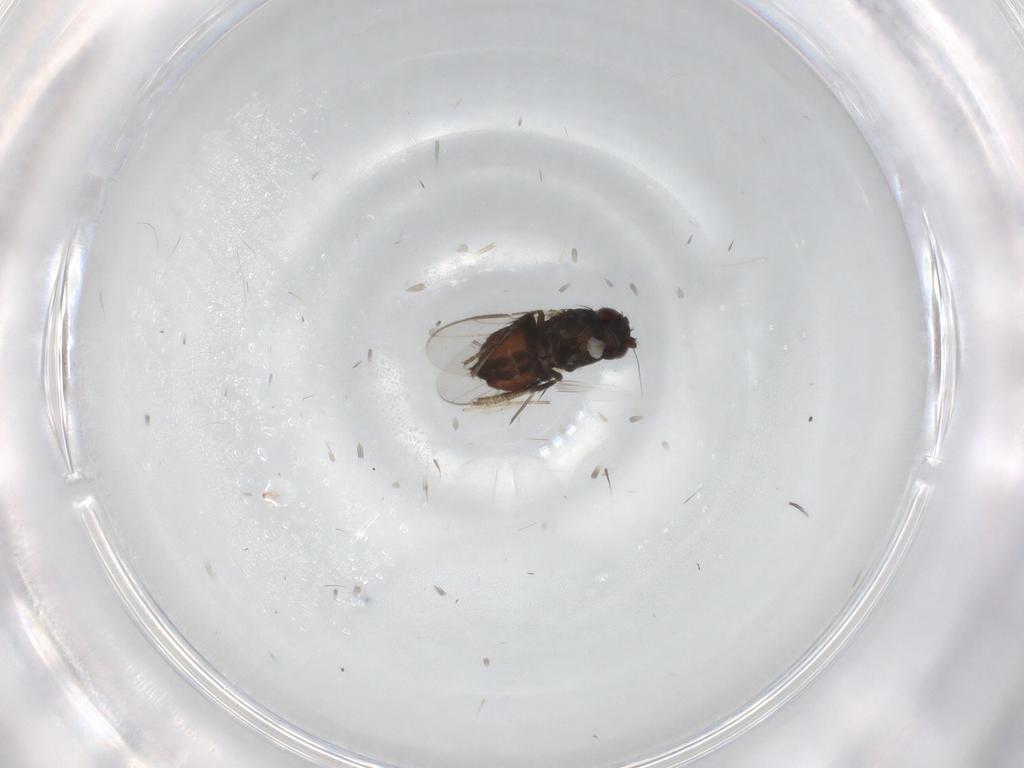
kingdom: Animalia
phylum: Arthropoda
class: Insecta
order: Diptera
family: Sphaeroceridae
